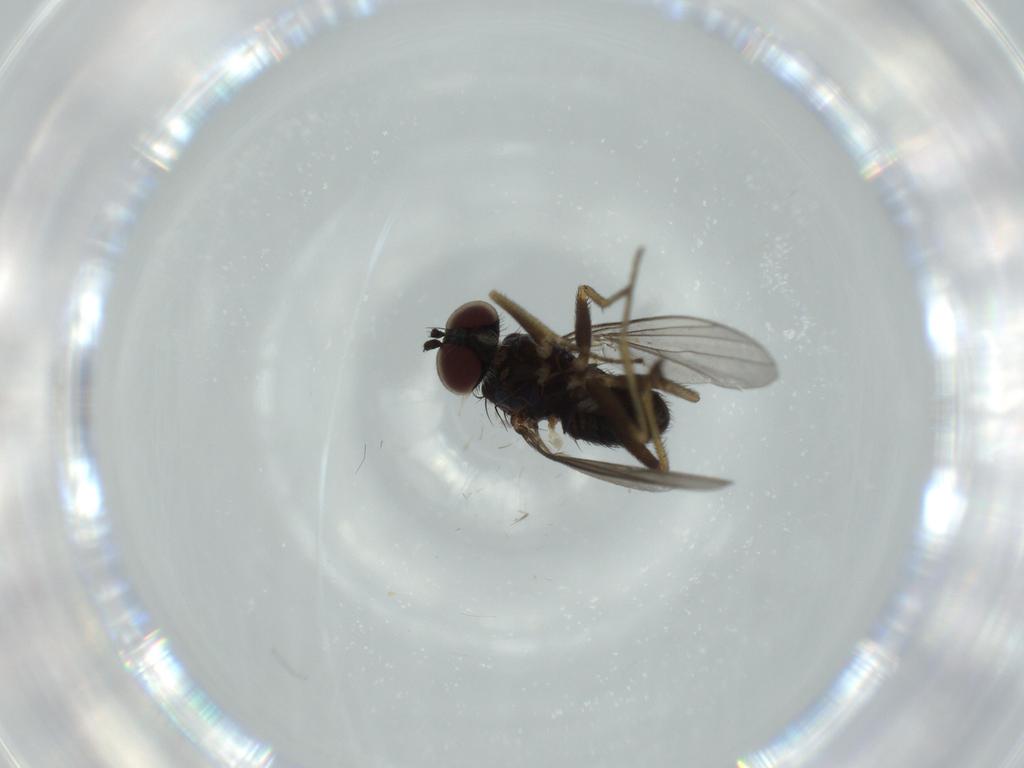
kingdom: Animalia
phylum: Arthropoda
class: Insecta
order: Diptera
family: Dolichopodidae
